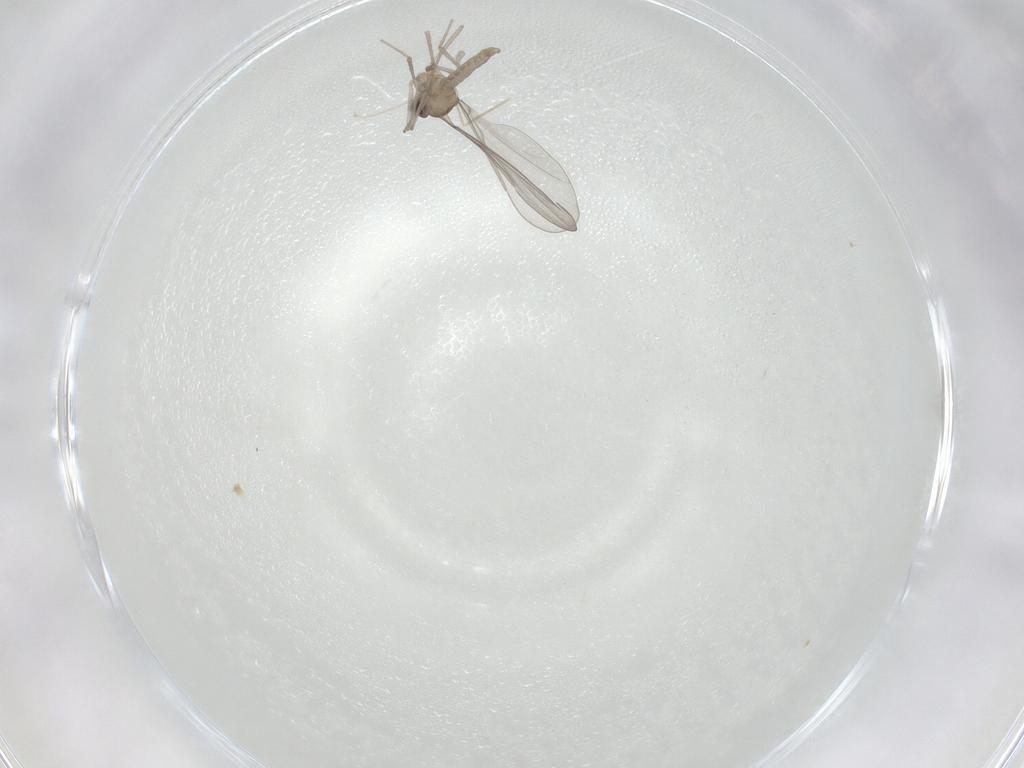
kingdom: Animalia
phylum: Arthropoda
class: Insecta
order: Diptera
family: Cecidomyiidae
